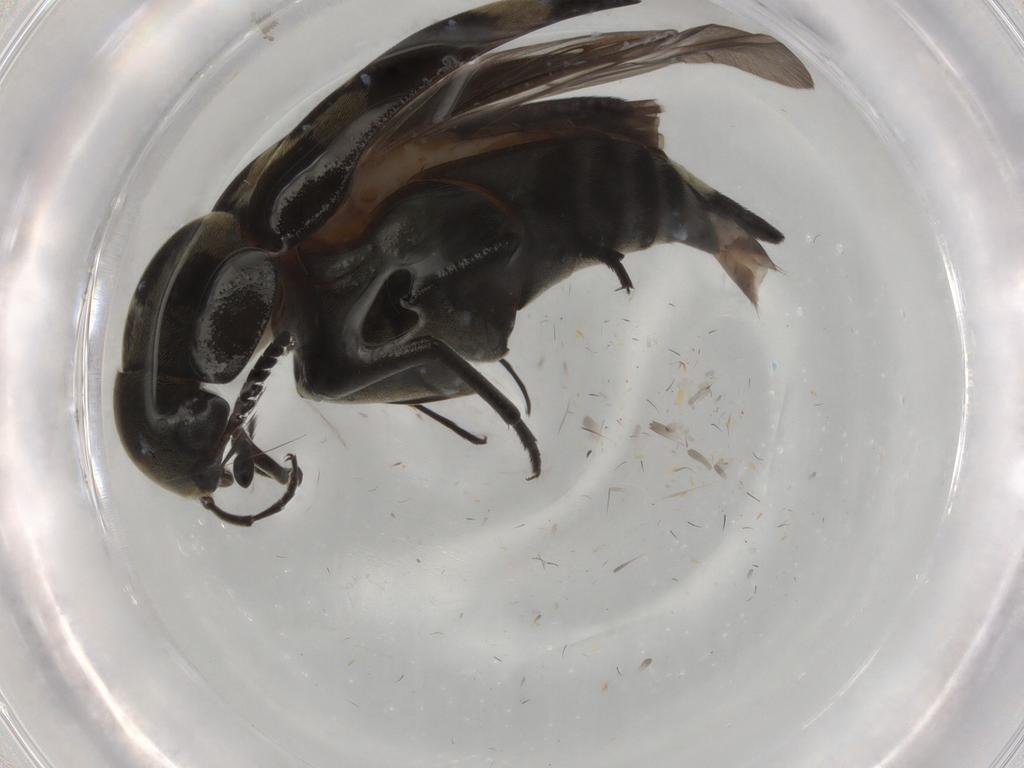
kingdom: Animalia
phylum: Arthropoda
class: Insecta
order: Coleoptera
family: Mordellidae
